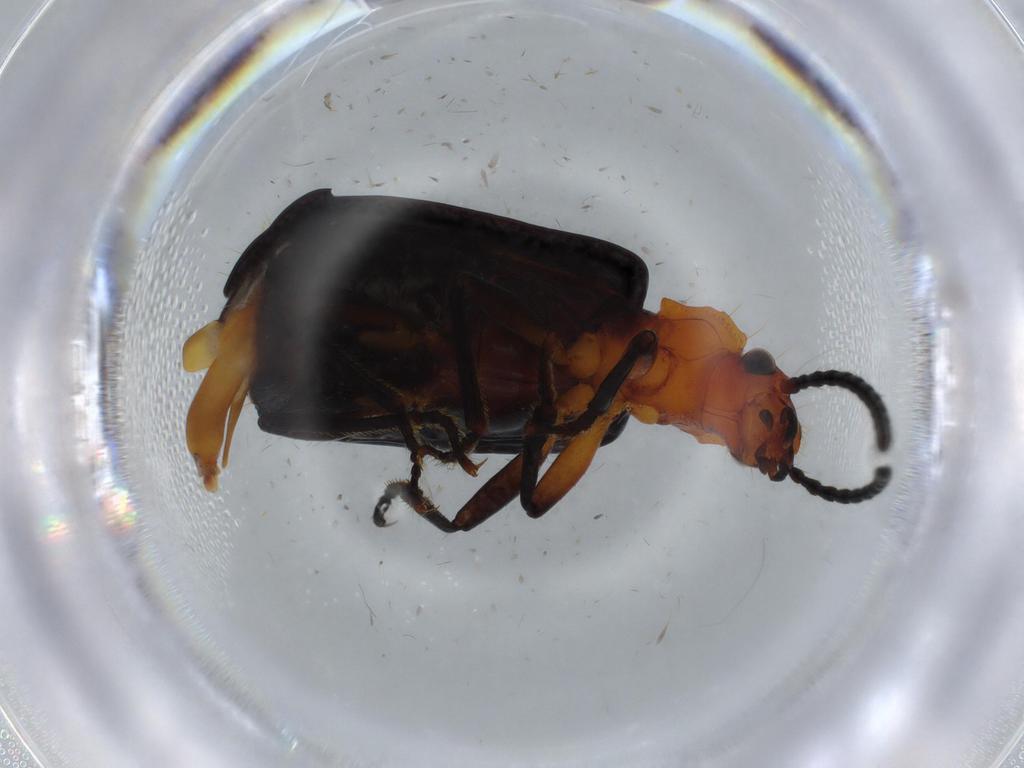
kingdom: Animalia
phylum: Arthropoda
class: Insecta
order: Coleoptera
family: Carabidae
